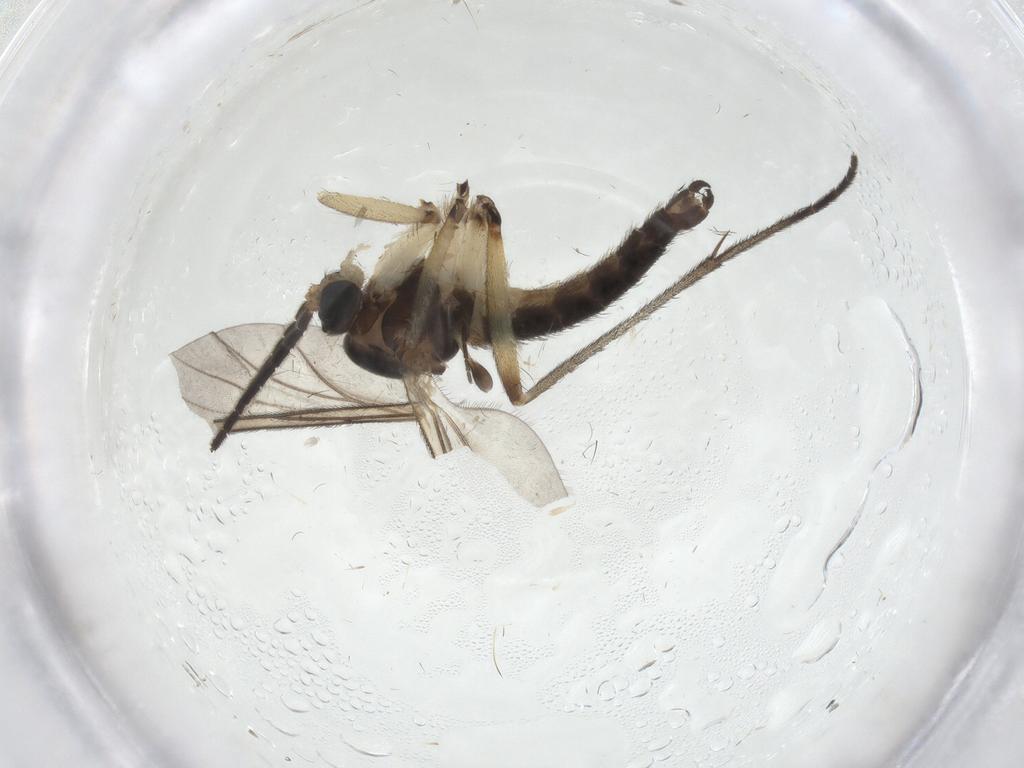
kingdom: Animalia
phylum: Arthropoda
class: Insecta
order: Diptera
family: Sciaridae
